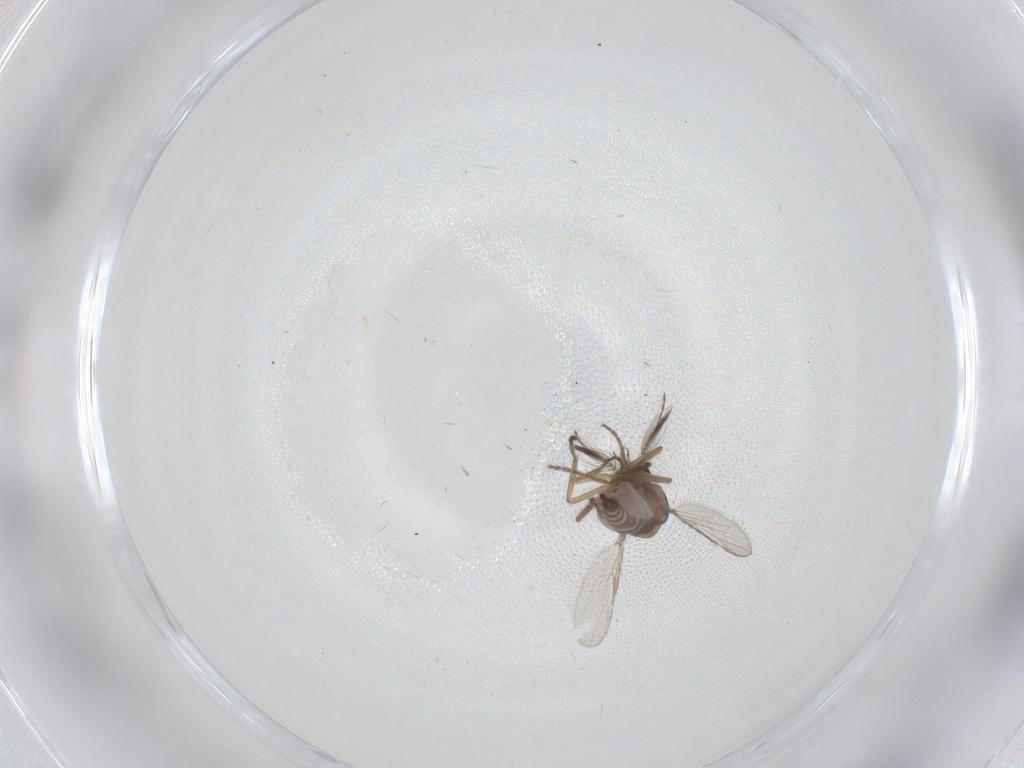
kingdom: Animalia
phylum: Arthropoda
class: Insecta
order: Diptera
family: Ceratopogonidae
